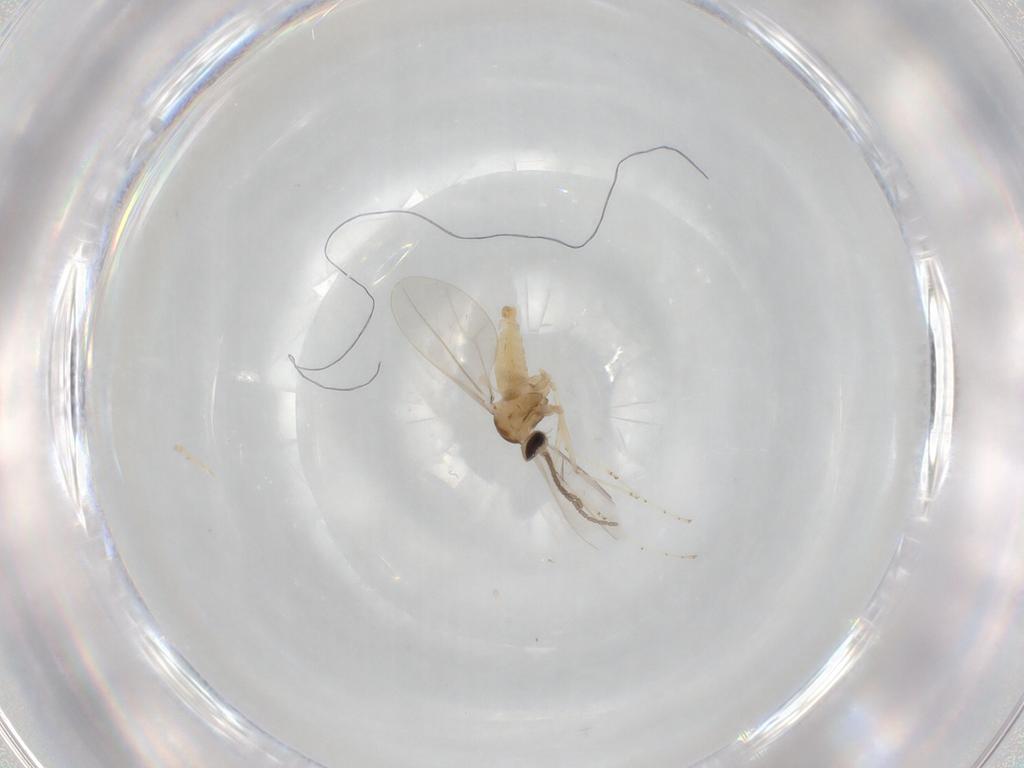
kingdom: Animalia
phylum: Arthropoda
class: Insecta
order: Diptera
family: Cecidomyiidae
